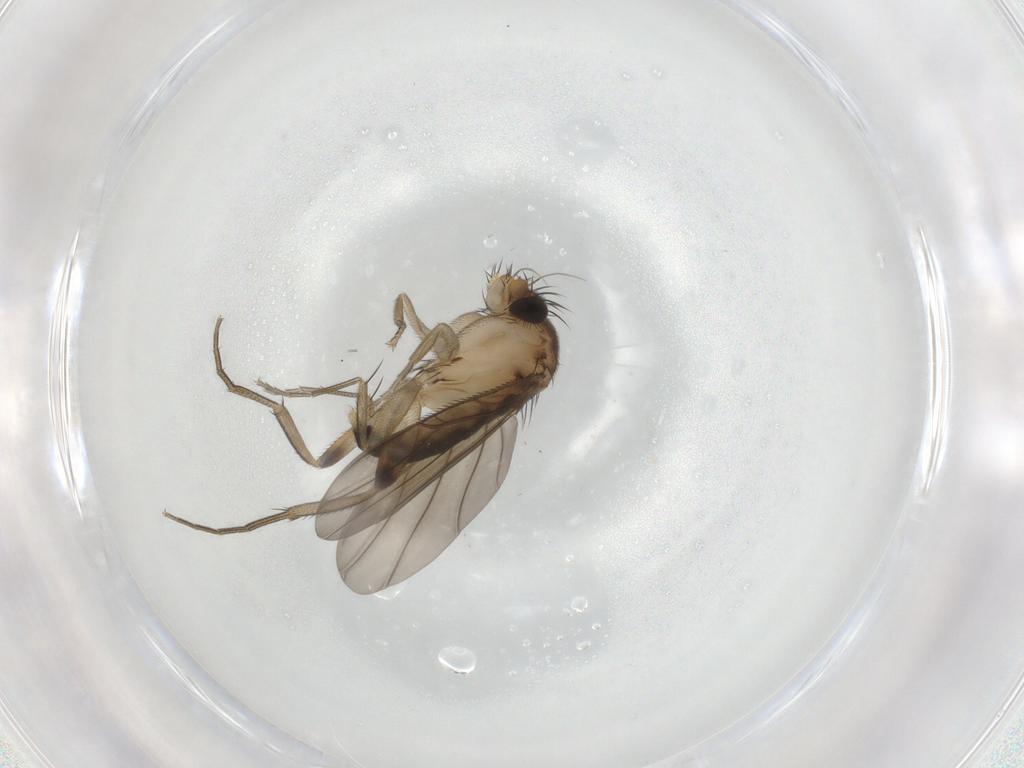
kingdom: Animalia
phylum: Arthropoda
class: Insecta
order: Diptera
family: Phoridae
